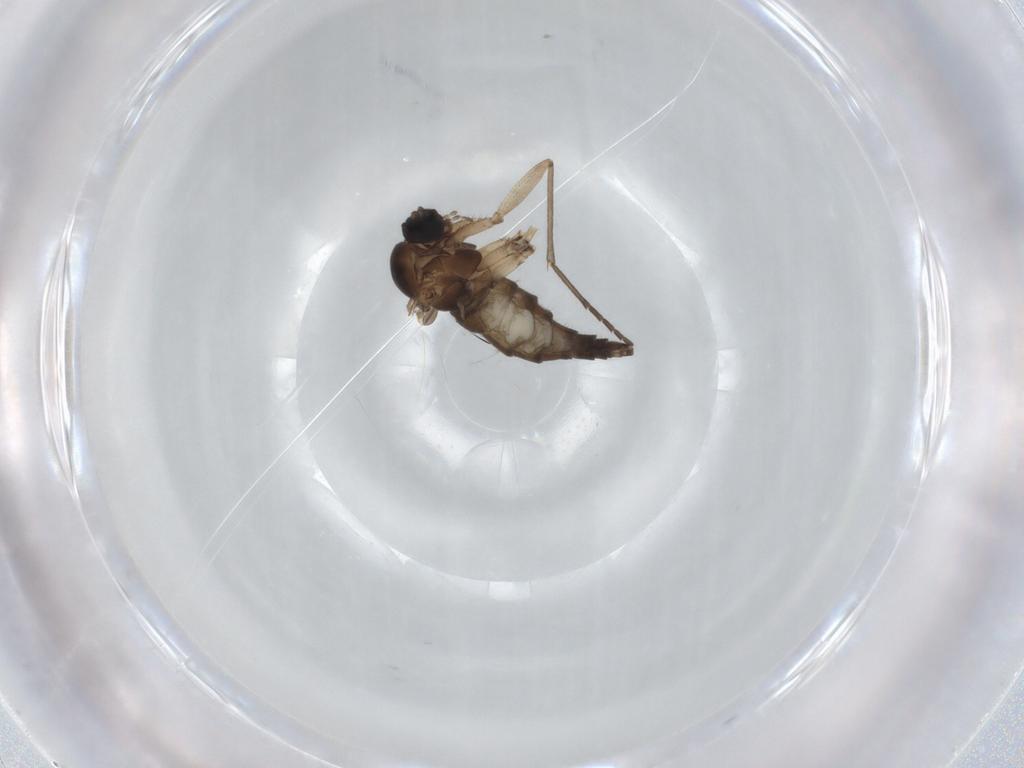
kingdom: Animalia
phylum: Arthropoda
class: Insecta
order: Diptera
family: Sciaridae
